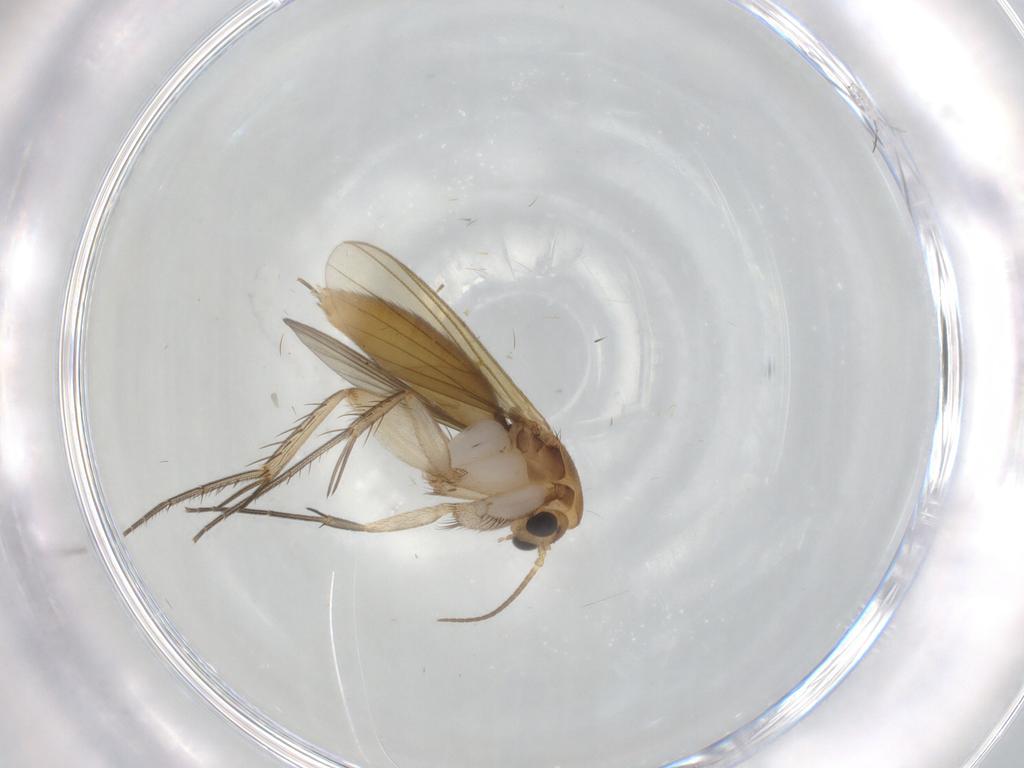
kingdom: Animalia
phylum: Arthropoda
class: Insecta
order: Diptera
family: Mycetophilidae
